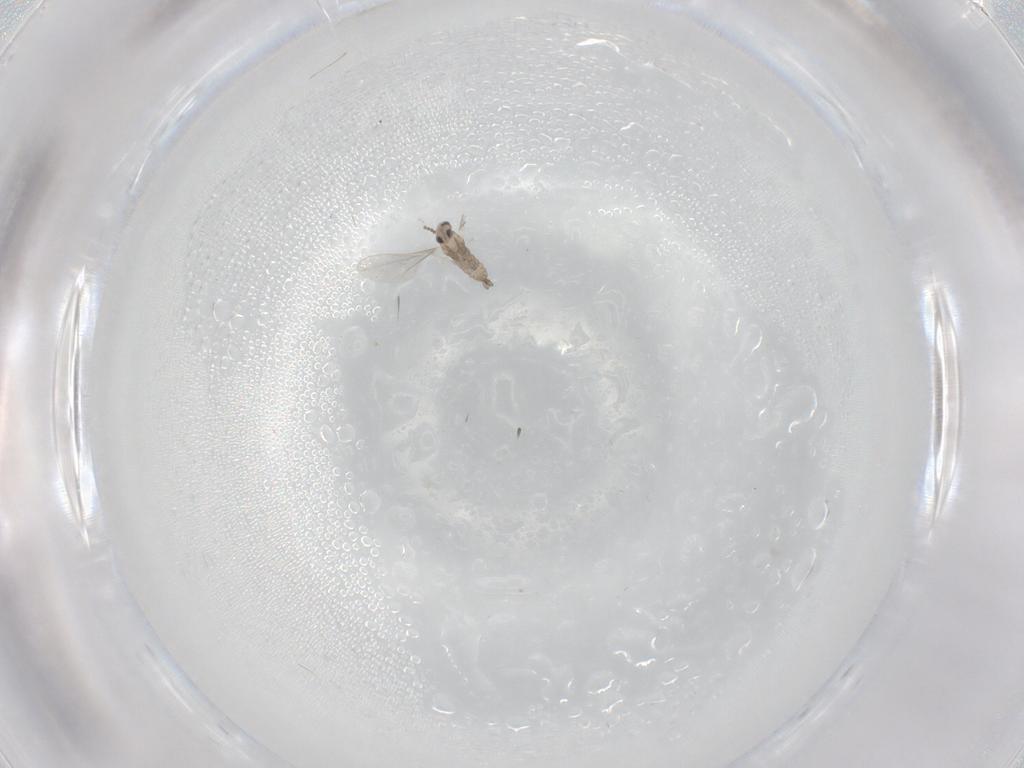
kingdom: Animalia
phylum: Arthropoda
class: Insecta
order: Diptera
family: Cecidomyiidae
